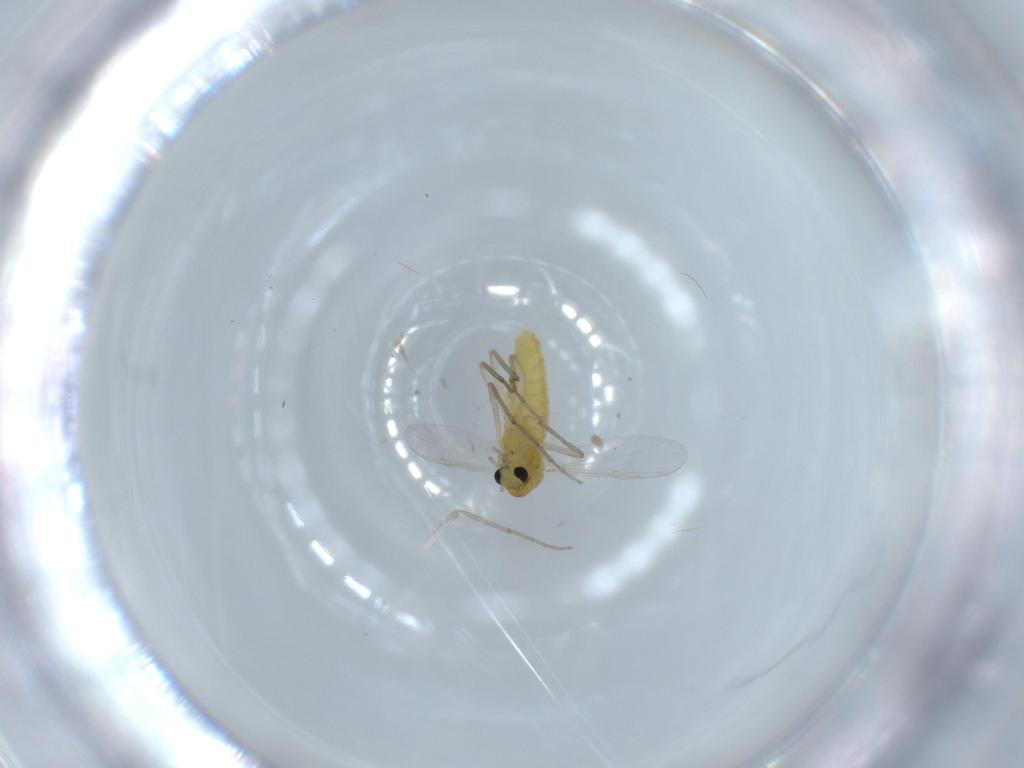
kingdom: Animalia
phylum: Arthropoda
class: Insecta
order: Diptera
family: Chironomidae
